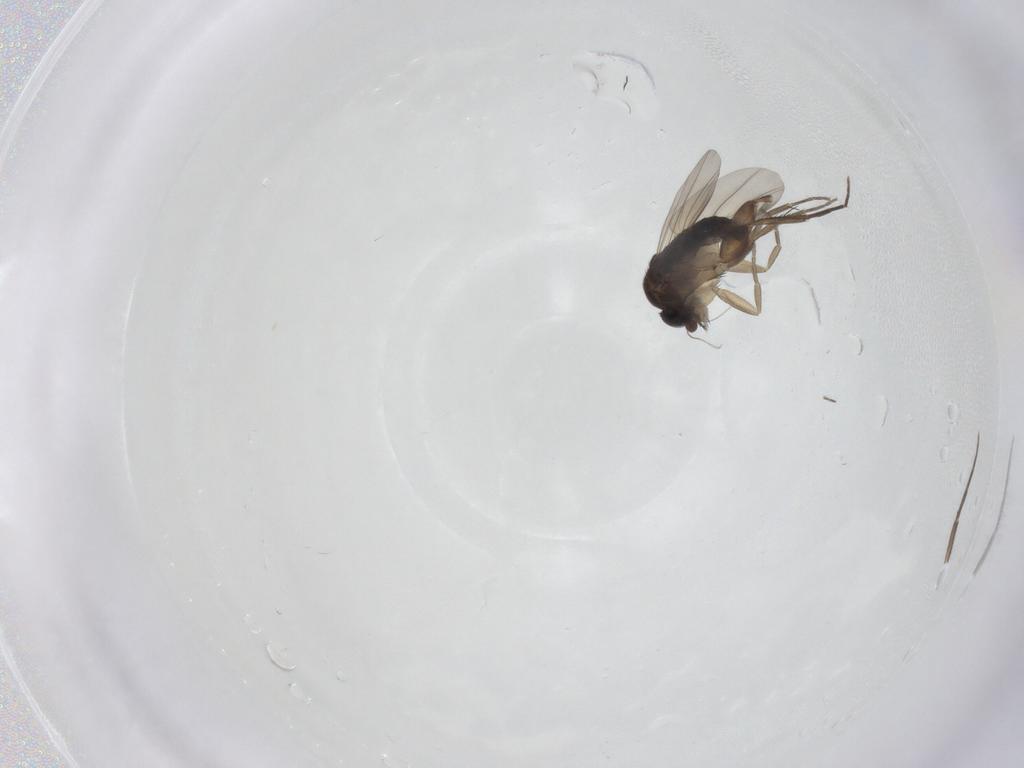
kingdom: Animalia
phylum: Arthropoda
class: Insecta
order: Diptera
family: Phoridae
